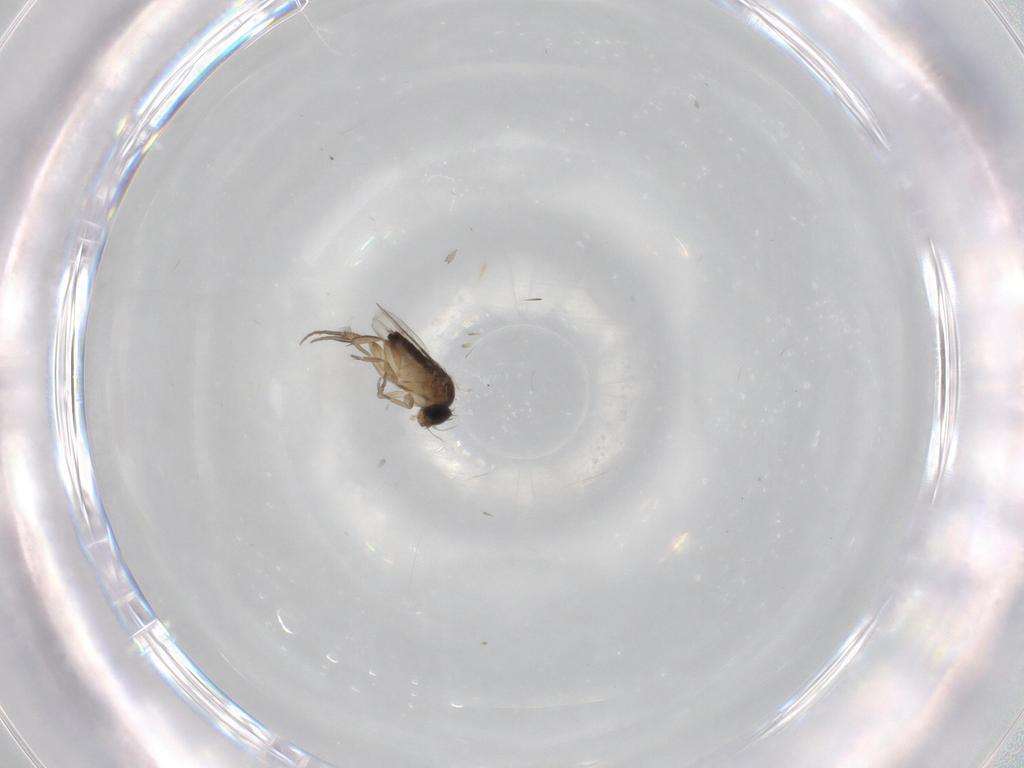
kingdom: Animalia
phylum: Arthropoda
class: Insecta
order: Diptera
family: Phoridae
